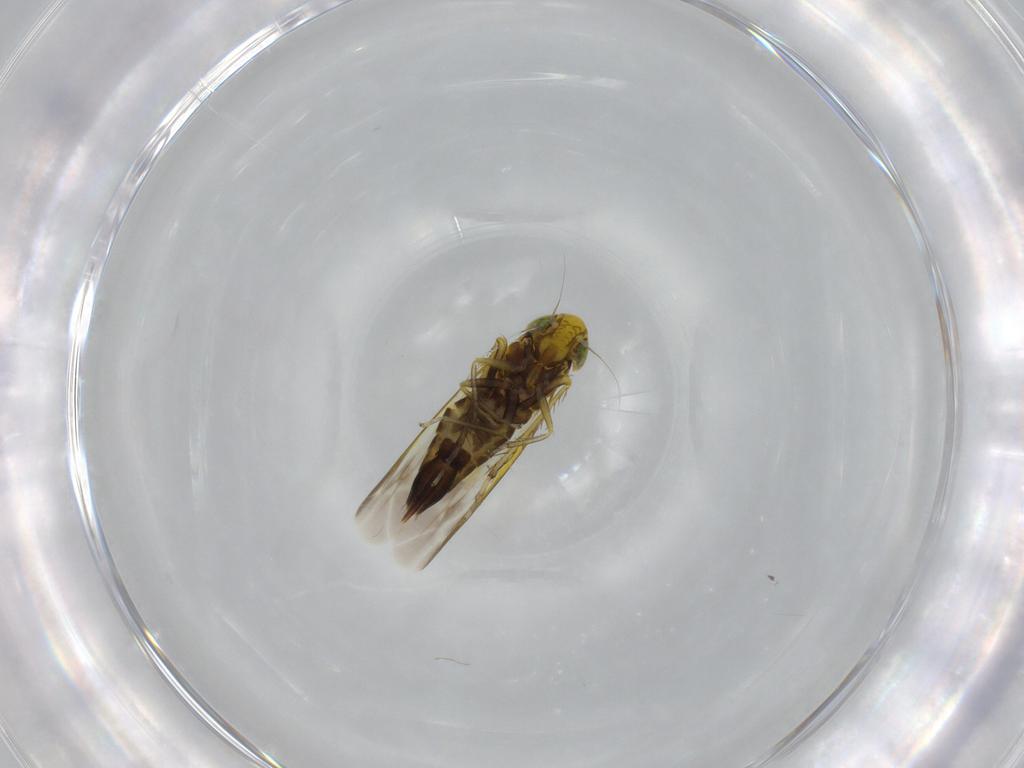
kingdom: Animalia
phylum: Arthropoda
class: Insecta
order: Hemiptera
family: Cicadellidae
